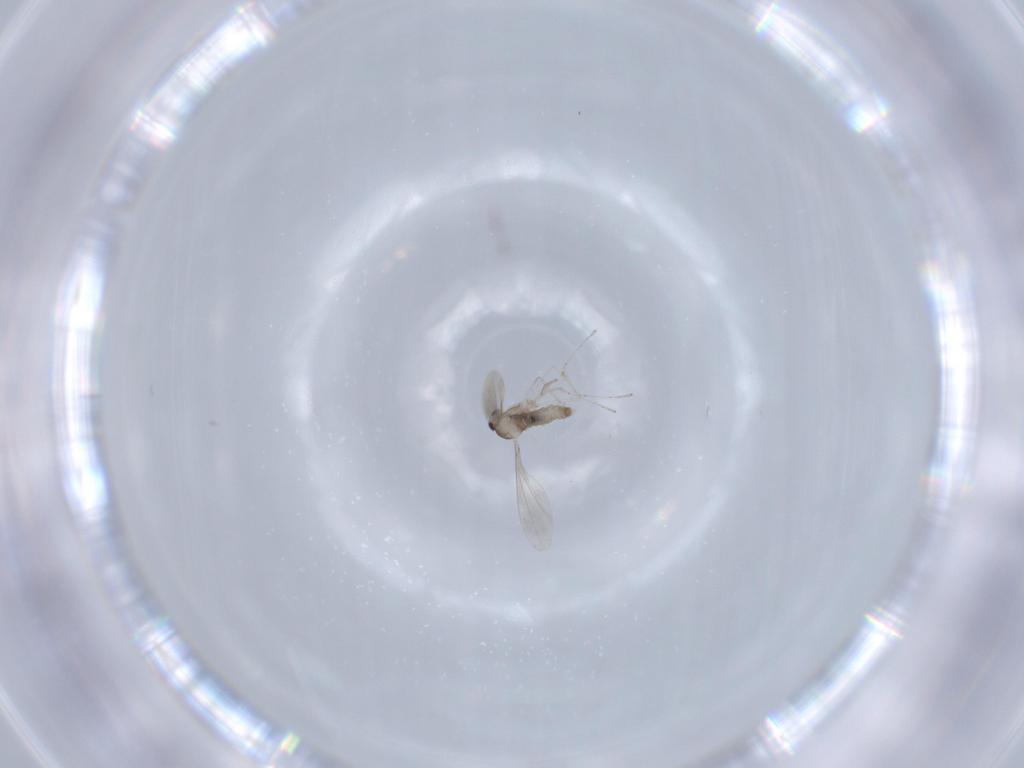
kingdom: Animalia
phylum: Arthropoda
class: Insecta
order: Diptera
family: Cecidomyiidae
